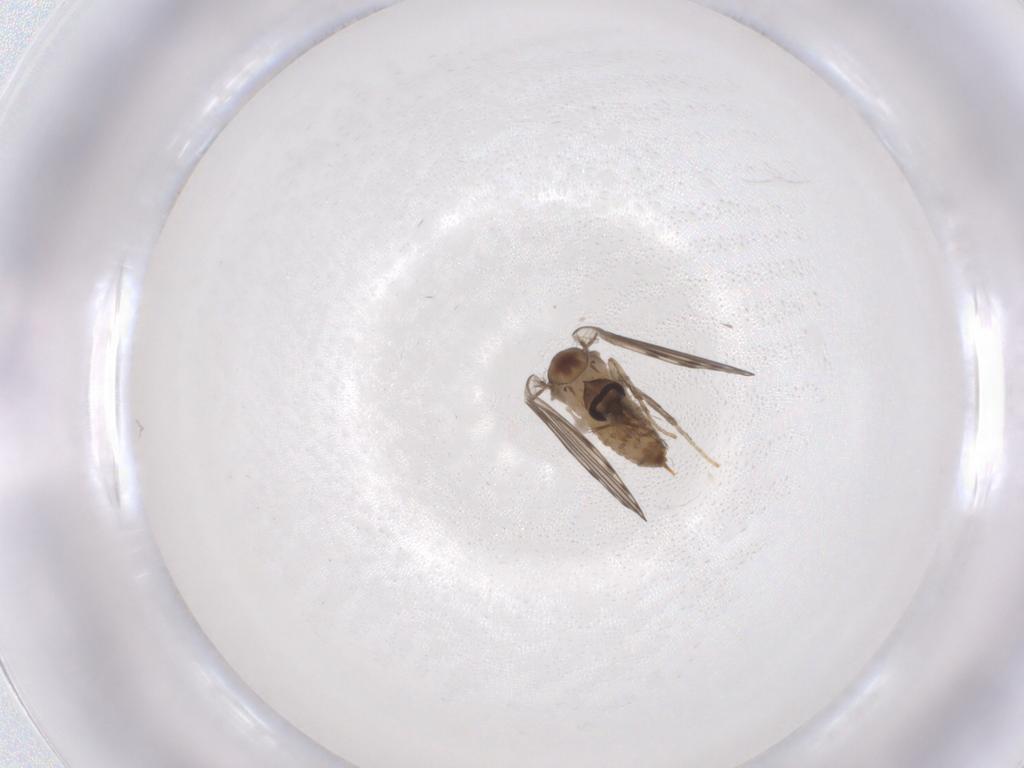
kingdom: Animalia
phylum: Arthropoda
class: Insecta
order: Diptera
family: Psychodidae
